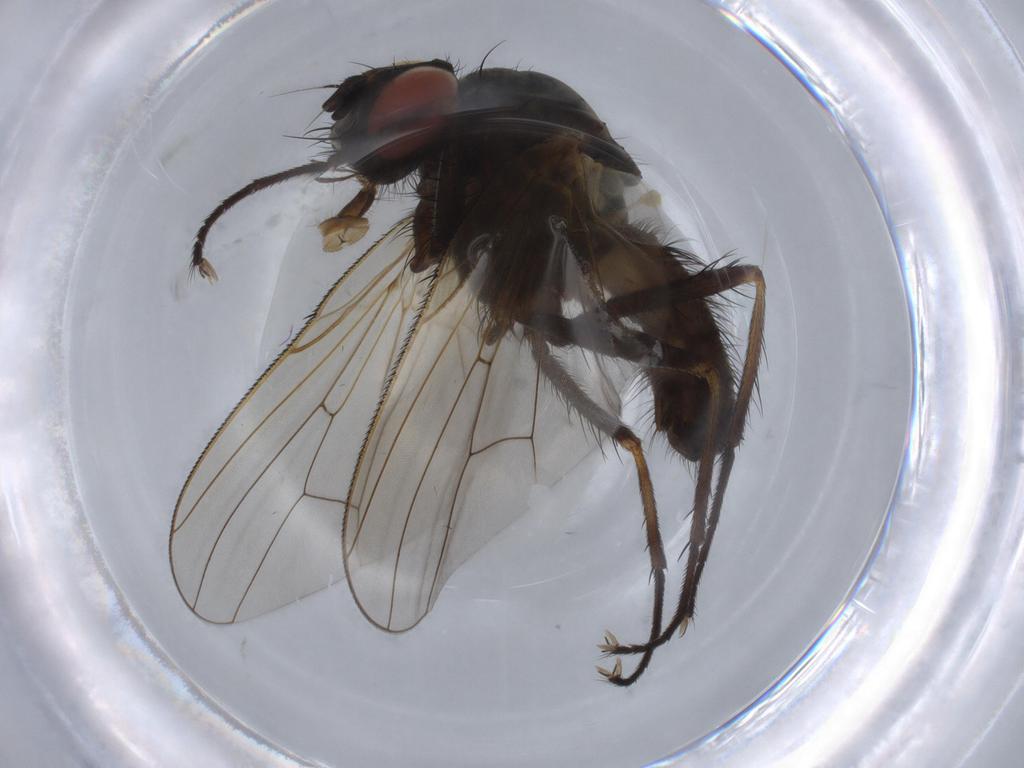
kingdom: Animalia
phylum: Arthropoda
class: Insecta
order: Diptera
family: Anthomyiidae
